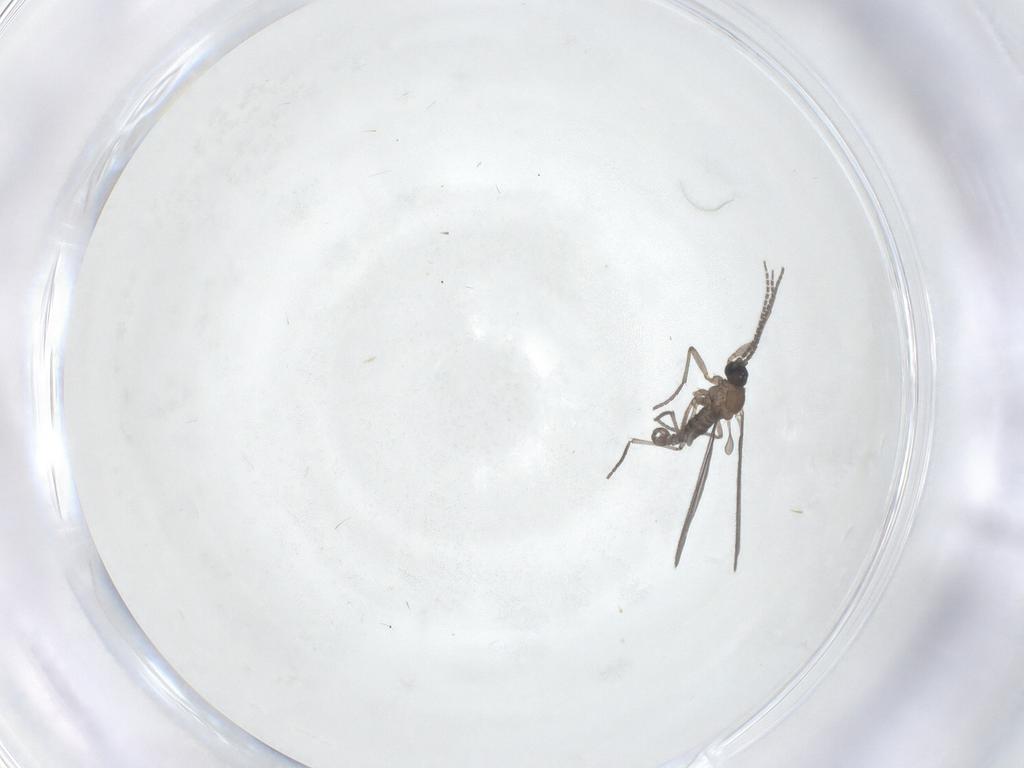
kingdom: Animalia
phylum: Arthropoda
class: Insecta
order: Diptera
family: Sciaridae
